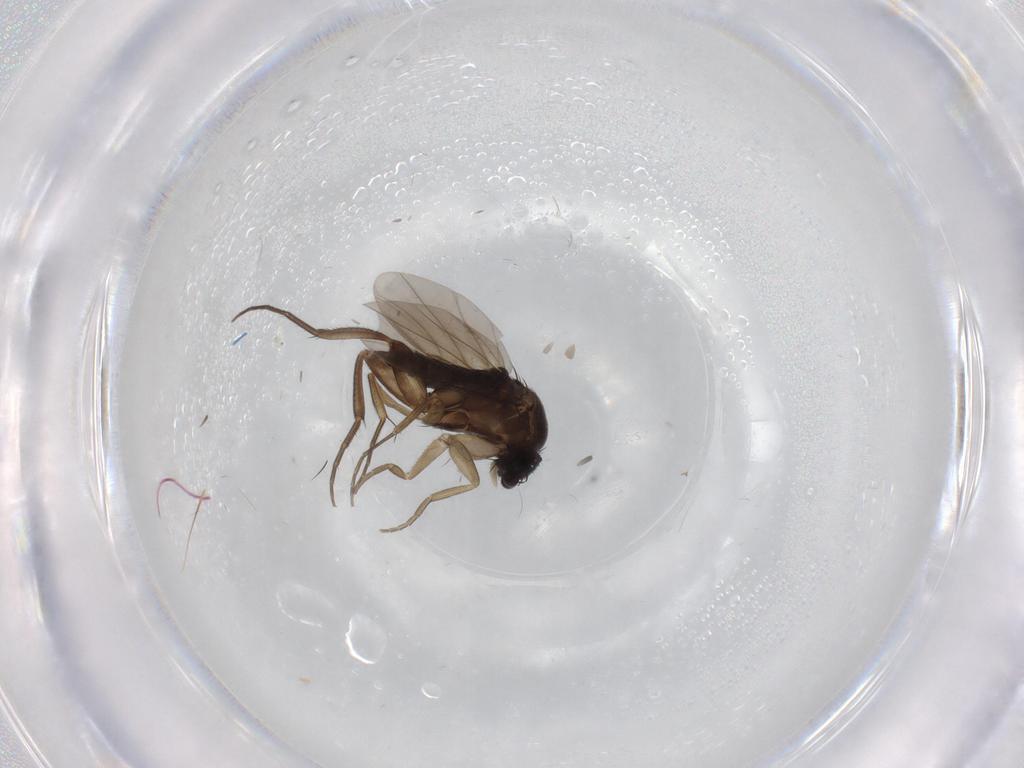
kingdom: Animalia
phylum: Arthropoda
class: Insecta
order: Diptera
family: Phoridae
